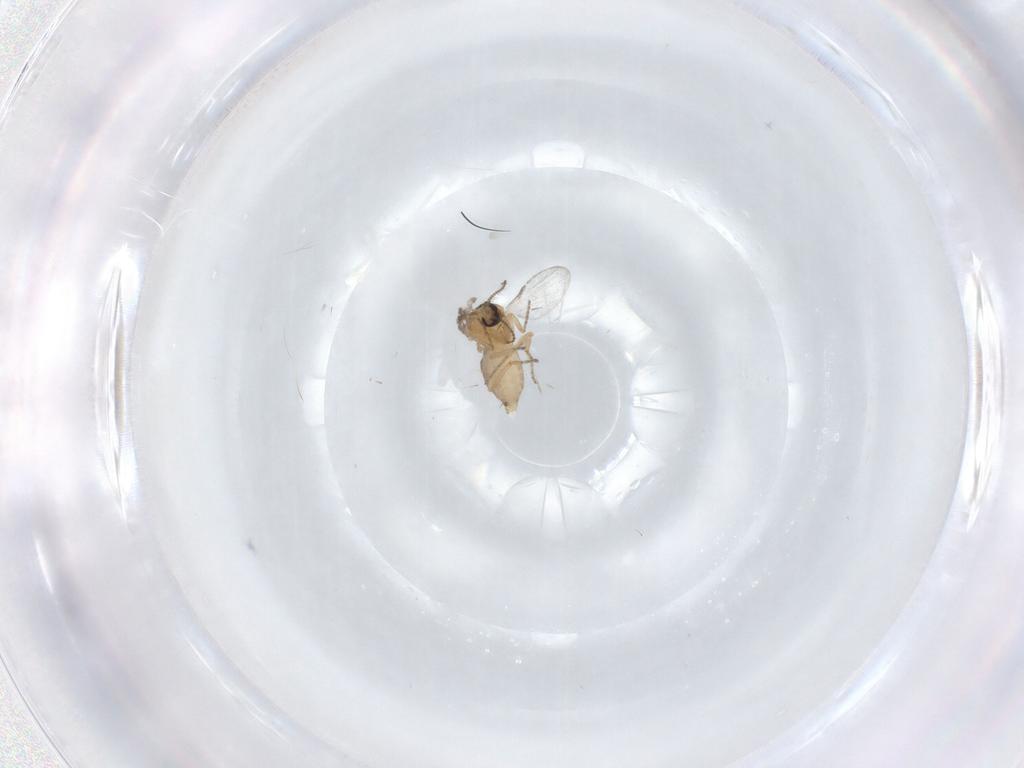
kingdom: Animalia
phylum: Arthropoda
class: Insecta
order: Diptera
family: Ceratopogonidae
